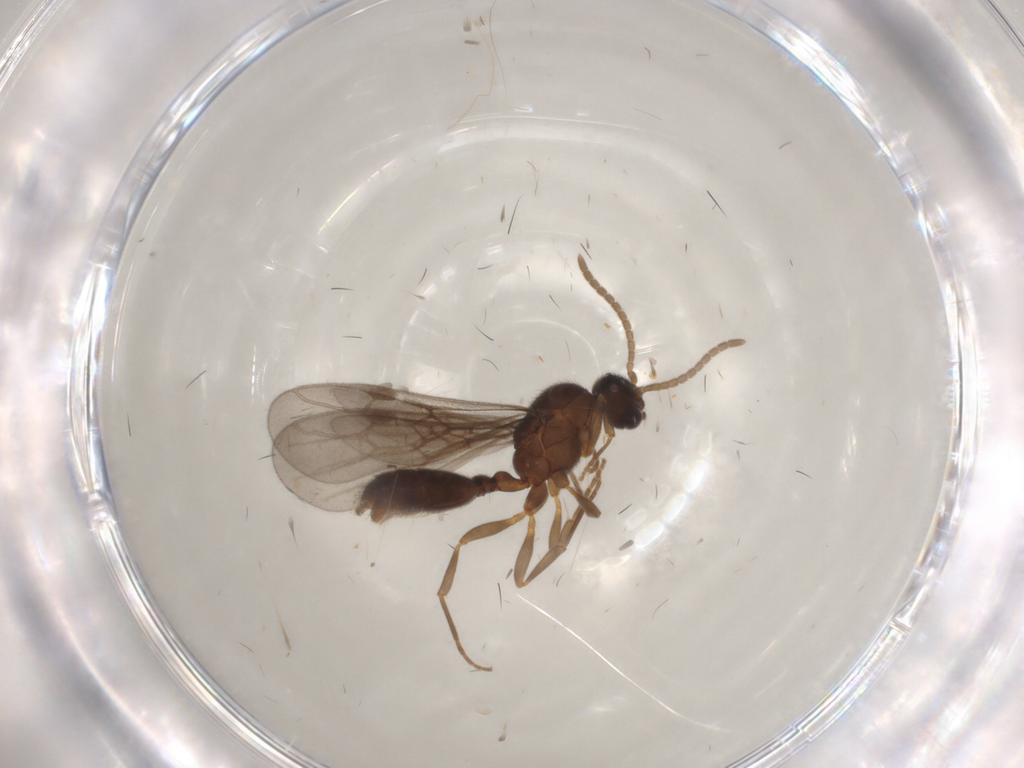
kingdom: Animalia
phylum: Arthropoda
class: Insecta
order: Hymenoptera
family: Formicidae
